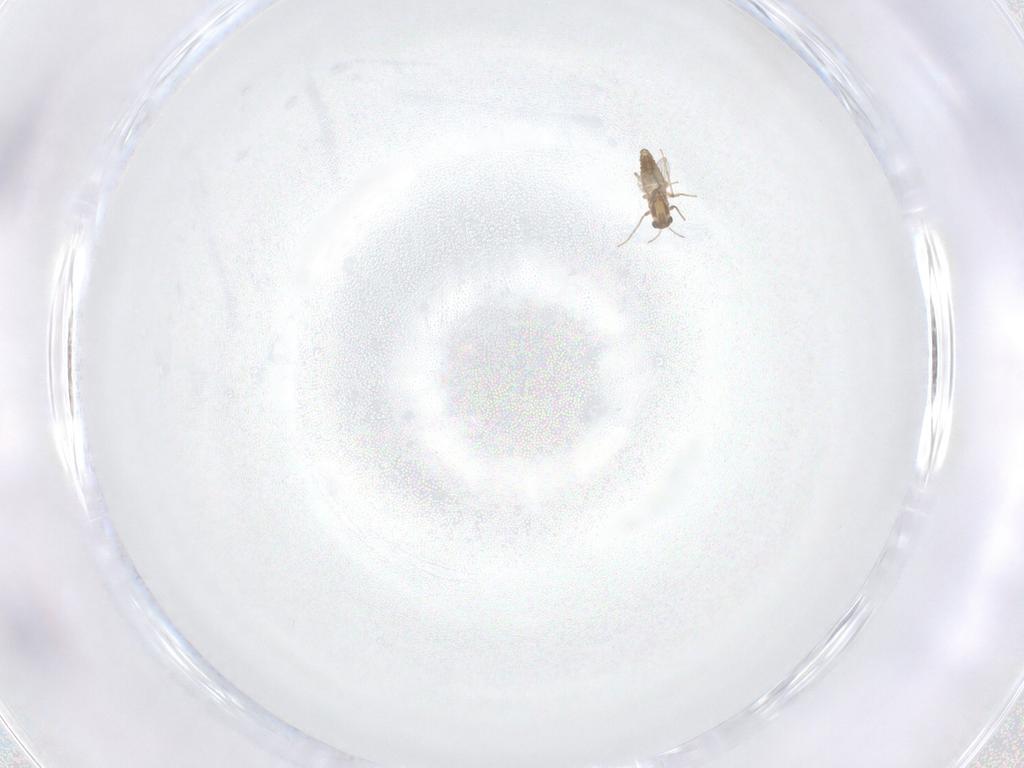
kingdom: Animalia
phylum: Arthropoda
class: Insecta
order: Diptera
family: Chironomidae
